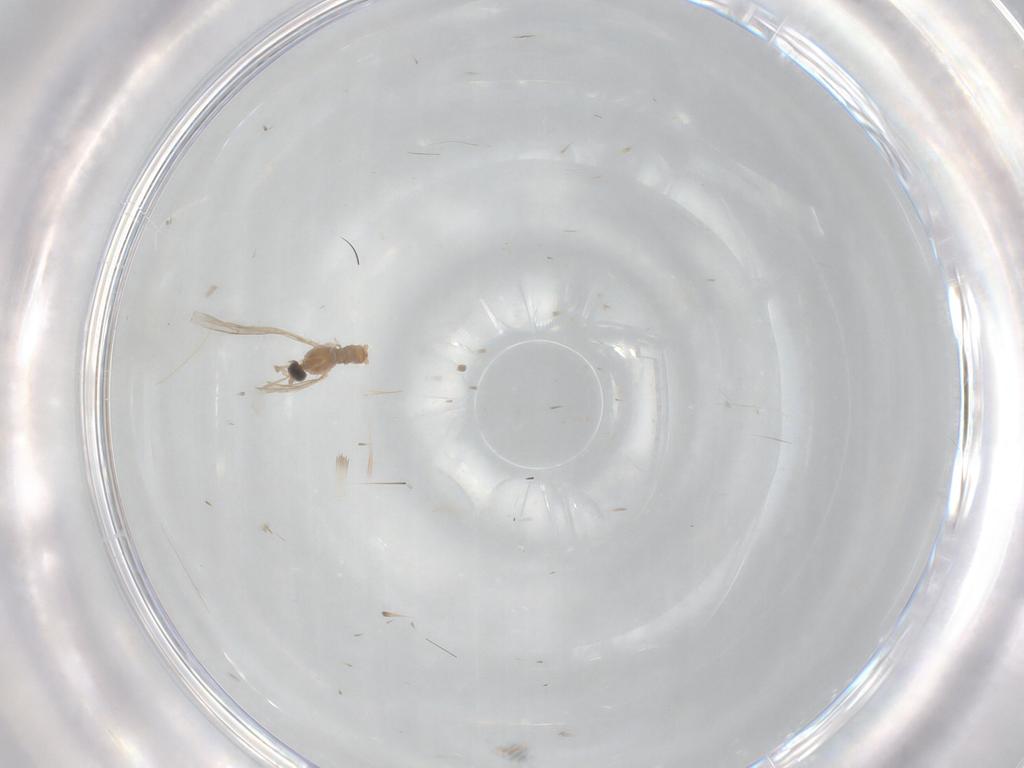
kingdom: Animalia
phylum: Arthropoda
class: Insecta
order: Diptera
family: Cecidomyiidae
